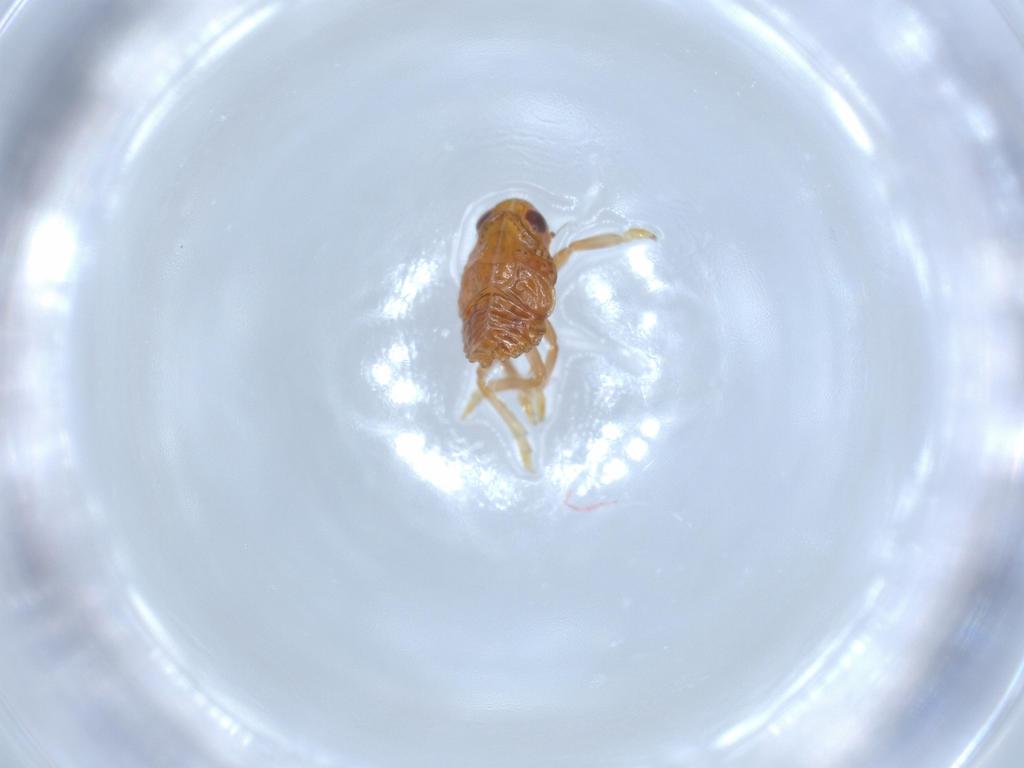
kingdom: Animalia
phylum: Arthropoda
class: Insecta
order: Hemiptera
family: Issidae
